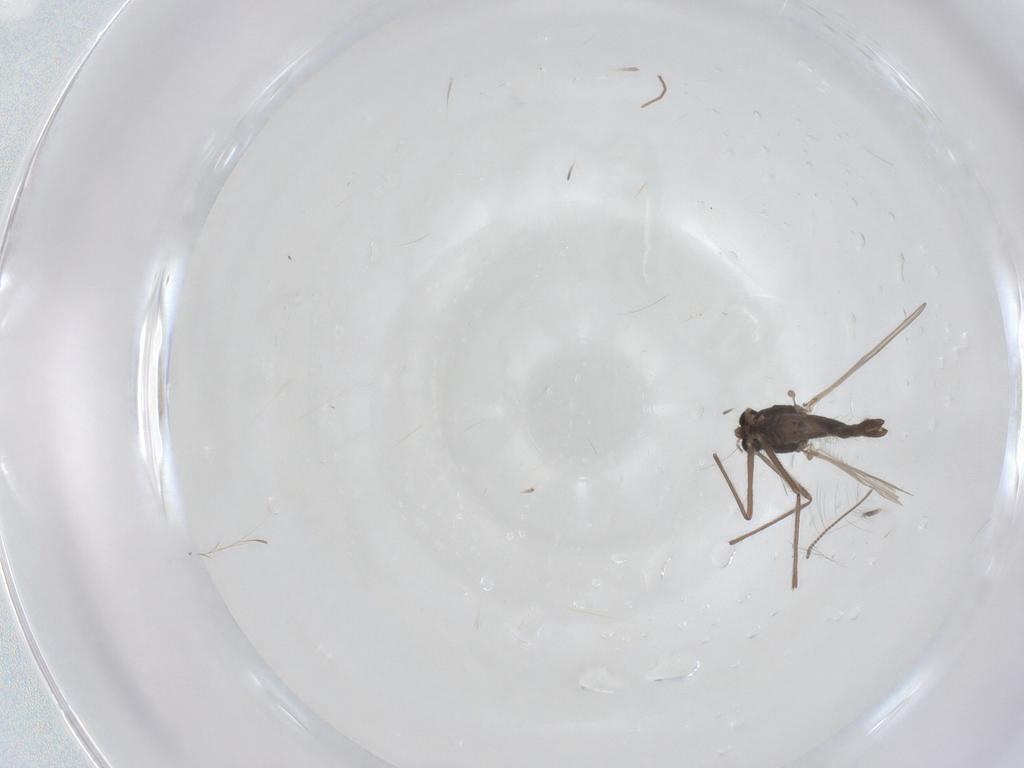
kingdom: Animalia
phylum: Arthropoda
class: Insecta
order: Diptera
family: Chironomidae
